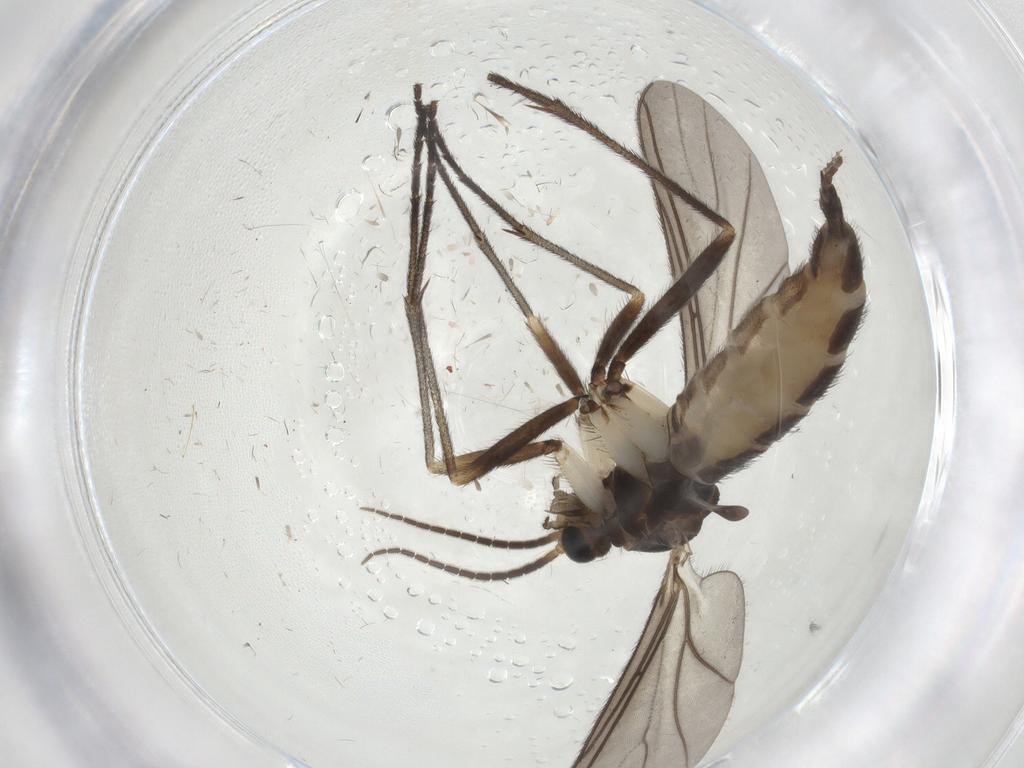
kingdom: Animalia
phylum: Arthropoda
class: Insecta
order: Diptera
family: Sciaridae
